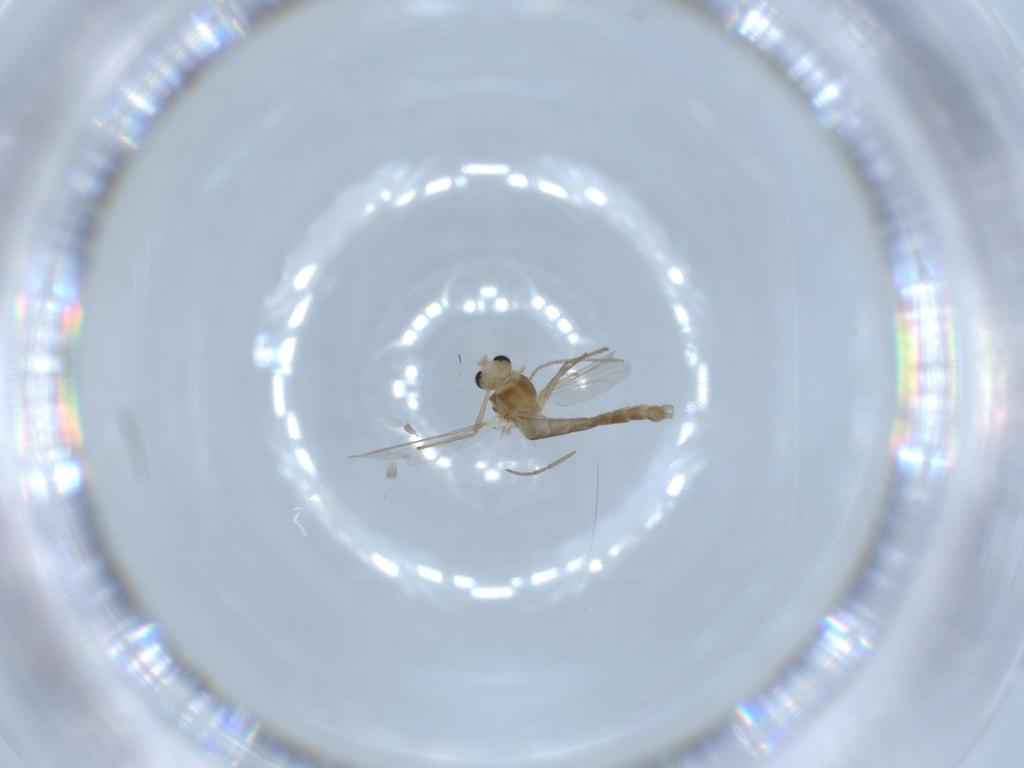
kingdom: Animalia
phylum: Arthropoda
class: Insecta
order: Diptera
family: Chironomidae
